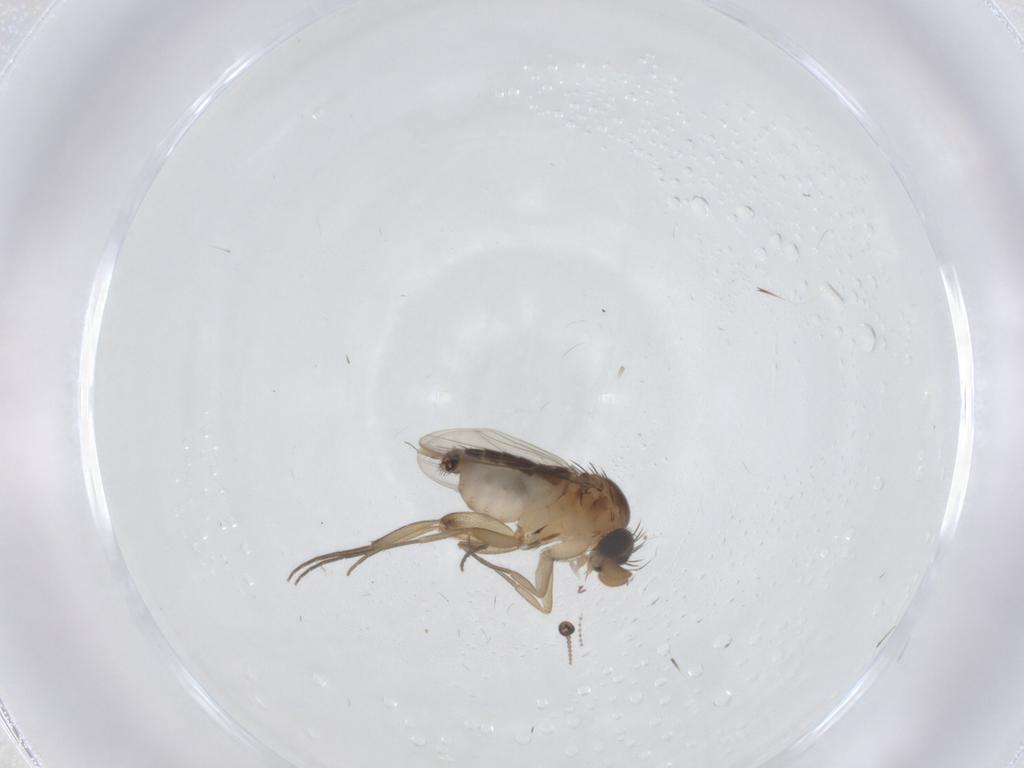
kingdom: Animalia
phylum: Arthropoda
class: Insecta
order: Diptera
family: Phoridae
